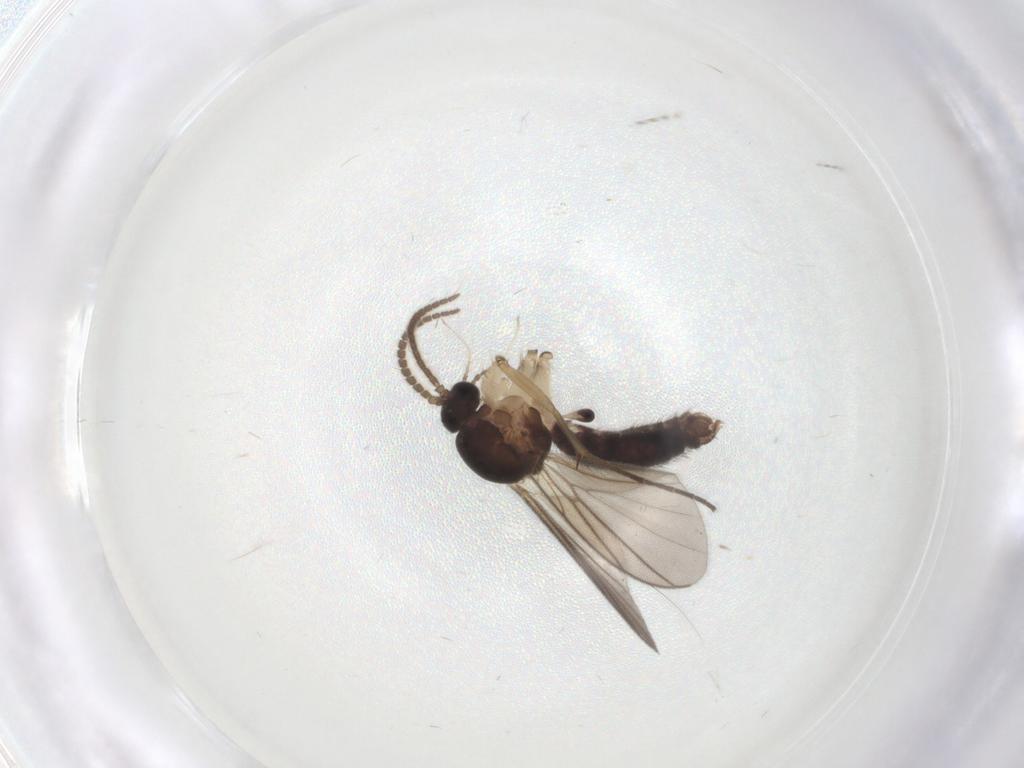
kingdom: Animalia
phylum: Arthropoda
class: Insecta
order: Diptera
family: Mycetophilidae
